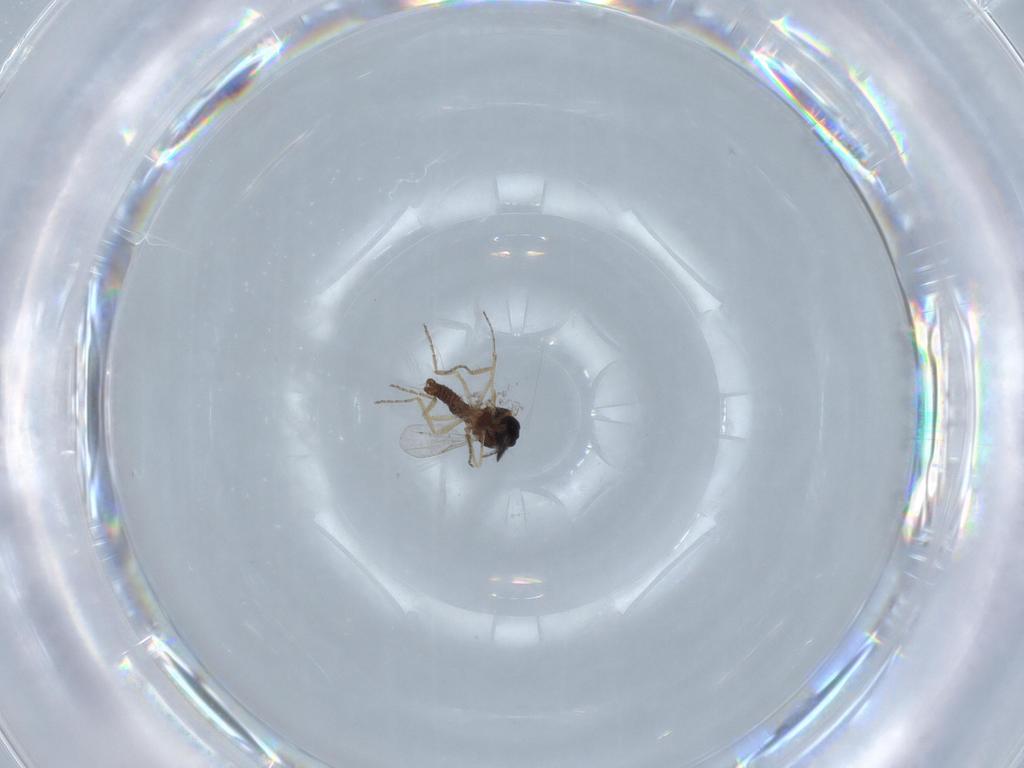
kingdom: Animalia
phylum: Arthropoda
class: Insecta
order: Diptera
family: Ceratopogonidae
